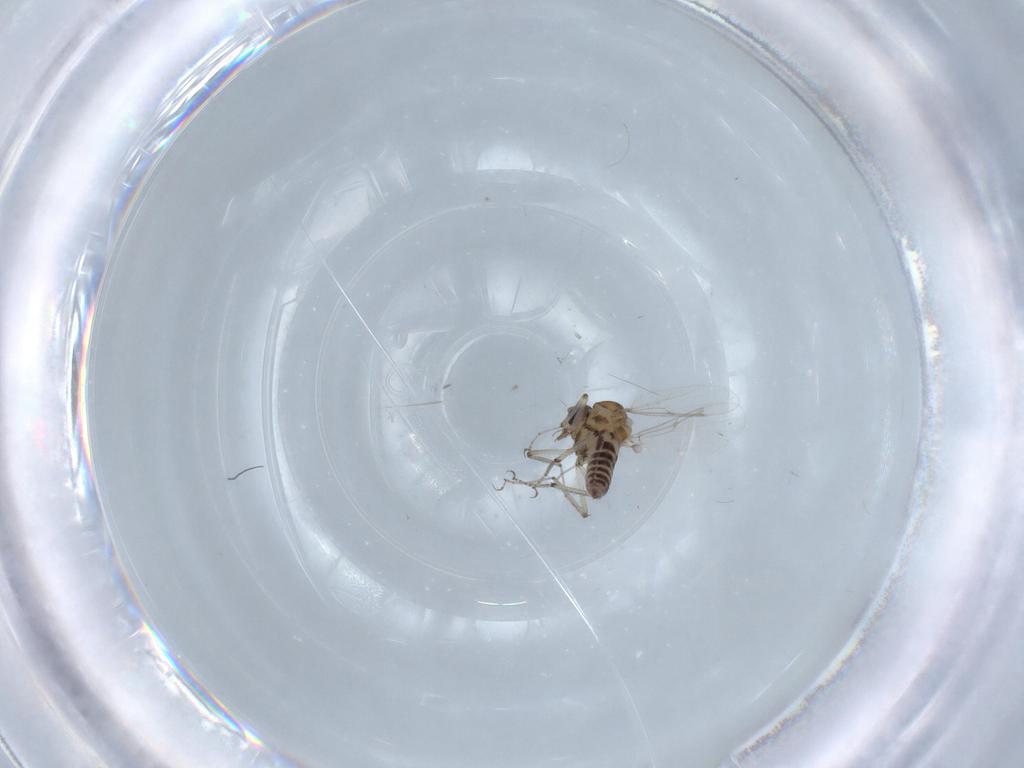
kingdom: Animalia
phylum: Arthropoda
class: Insecta
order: Diptera
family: Ceratopogonidae
